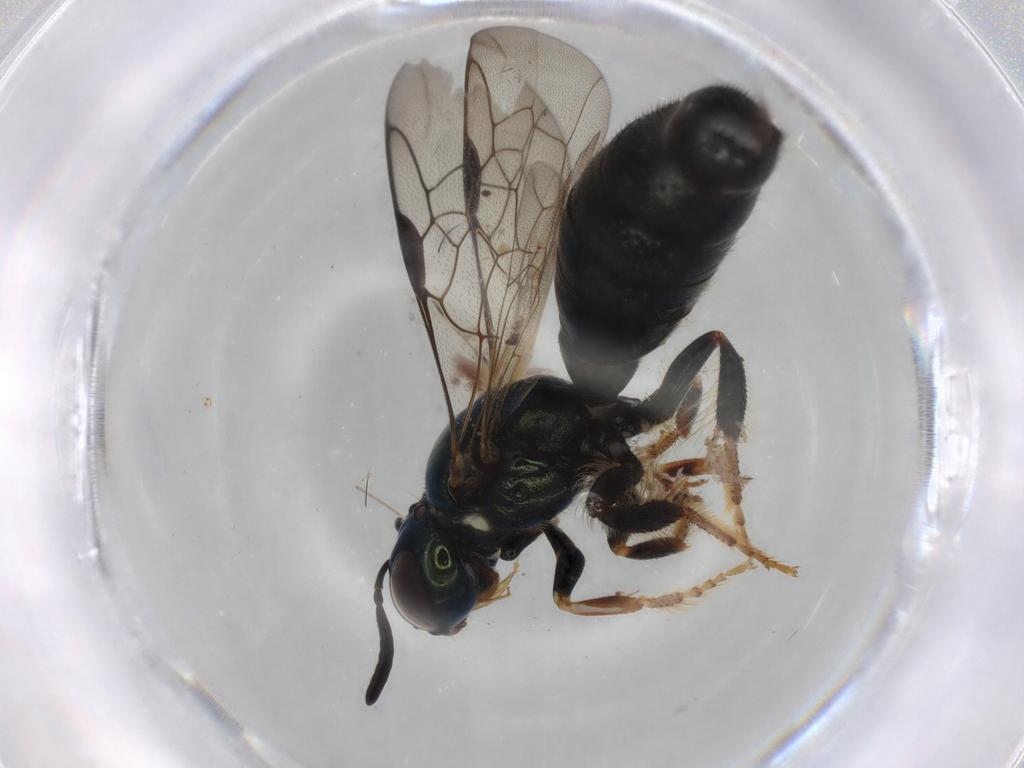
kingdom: Animalia
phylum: Arthropoda
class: Insecta
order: Hymenoptera
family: Apidae
